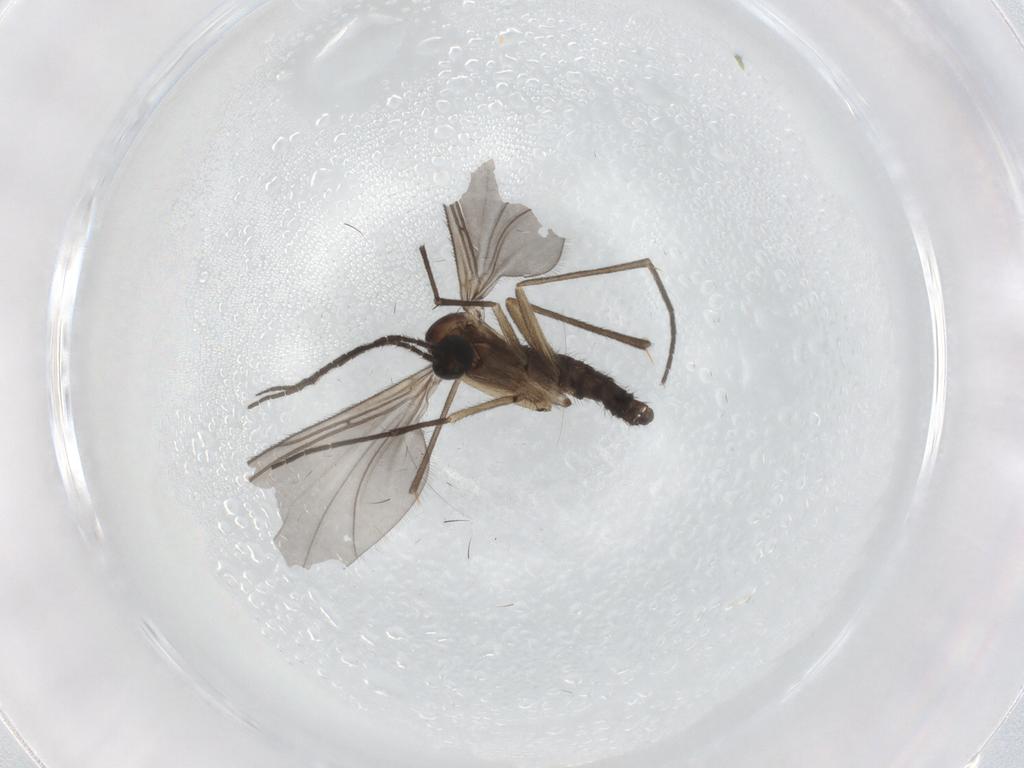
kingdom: Animalia
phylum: Arthropoda
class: Insecta
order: Diptera
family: Sciaridae
